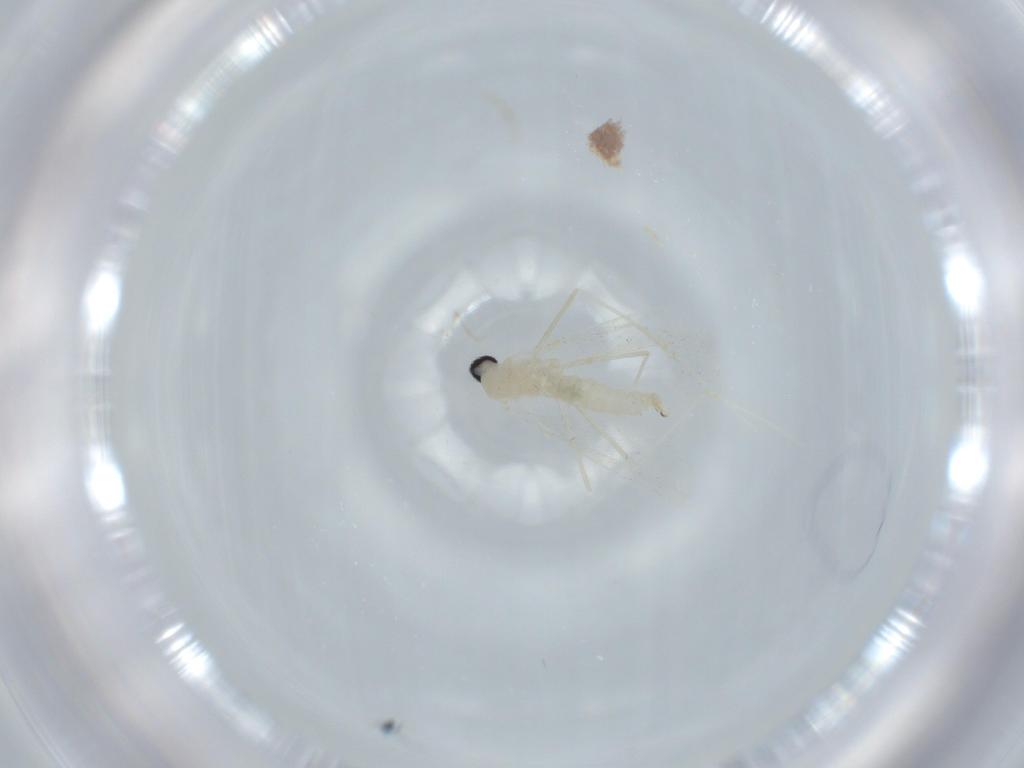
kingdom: Animalia
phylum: Arthropoda
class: Insecta
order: Diptera
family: Cecidomyiidae
